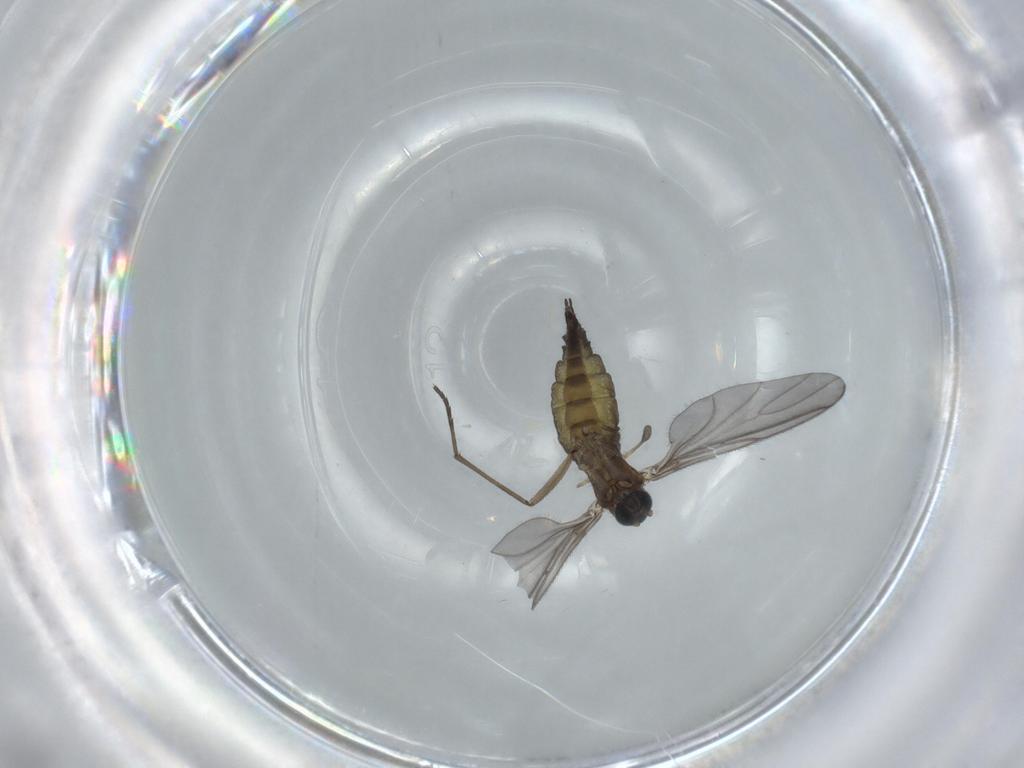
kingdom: Animalia
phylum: Arthropoda
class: Insecta
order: Diptera
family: Sciaridae
